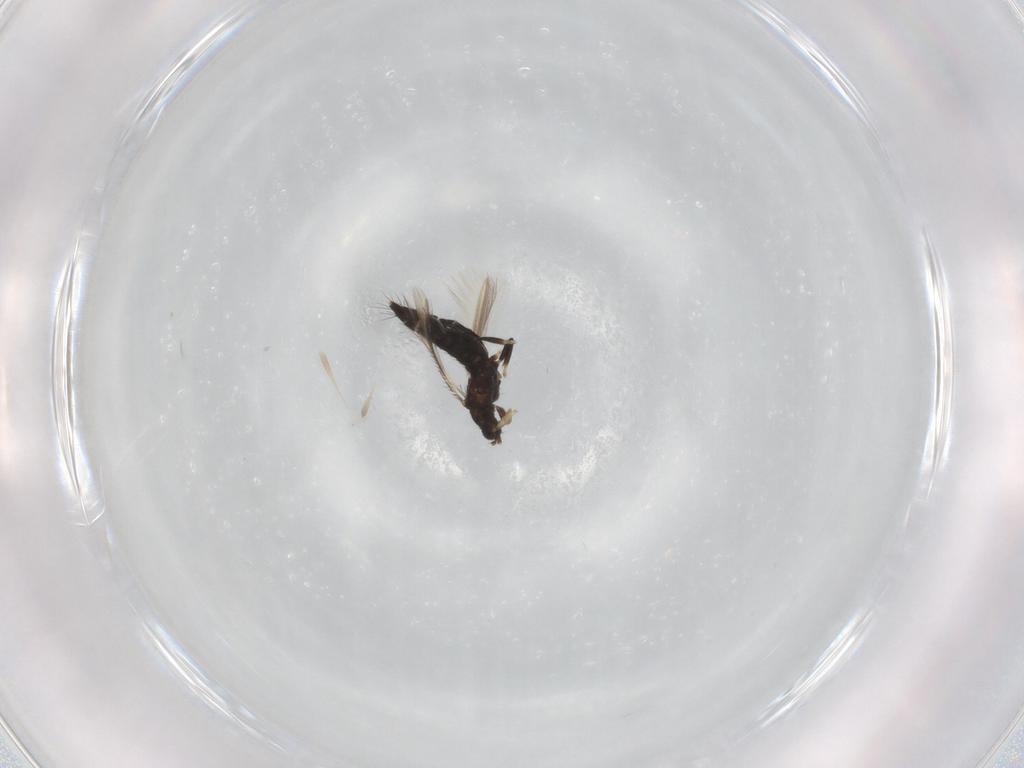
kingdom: Animalia
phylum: Arthropoda
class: Insecta
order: Thysanoptera
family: Thripidae
